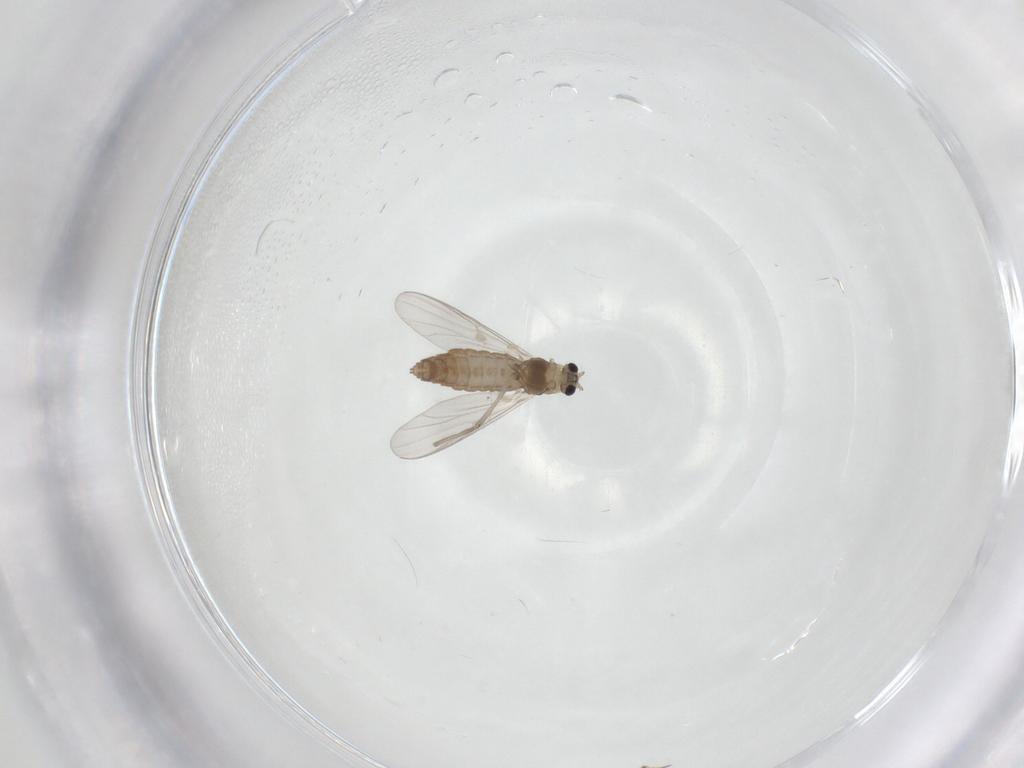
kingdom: Animalia
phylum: Arthropoda
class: Insecta
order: Diptera
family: Chironomidae
